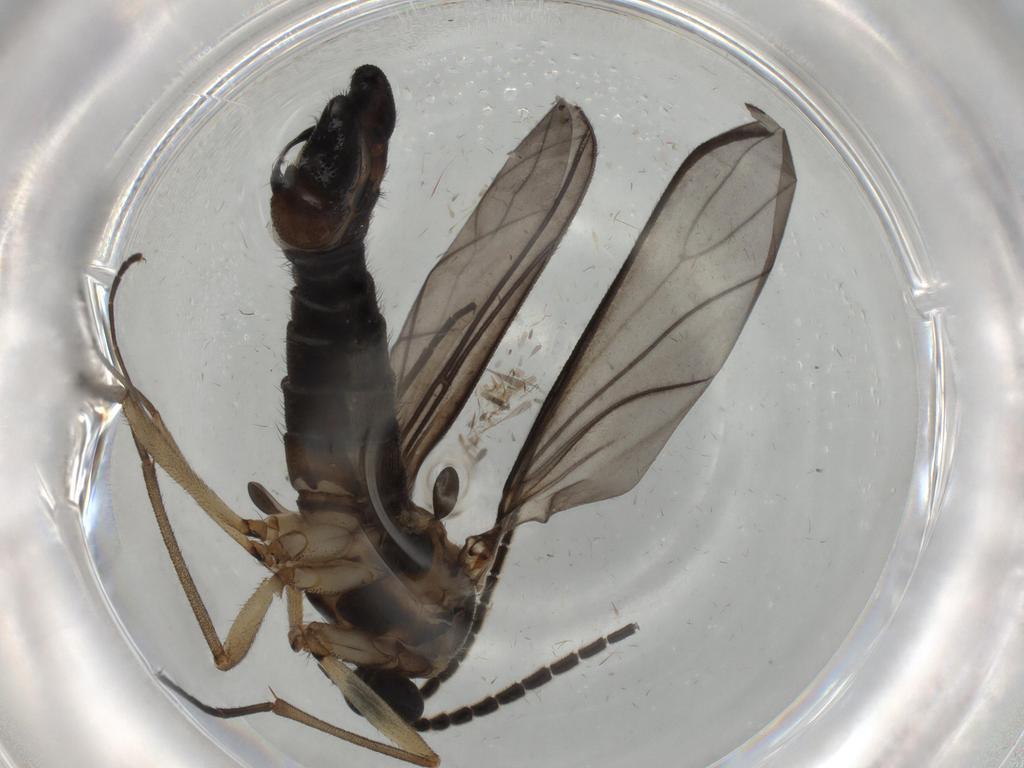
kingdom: Animalia
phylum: Arthropoda
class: Insecta
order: Diptera
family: Sciaridae
